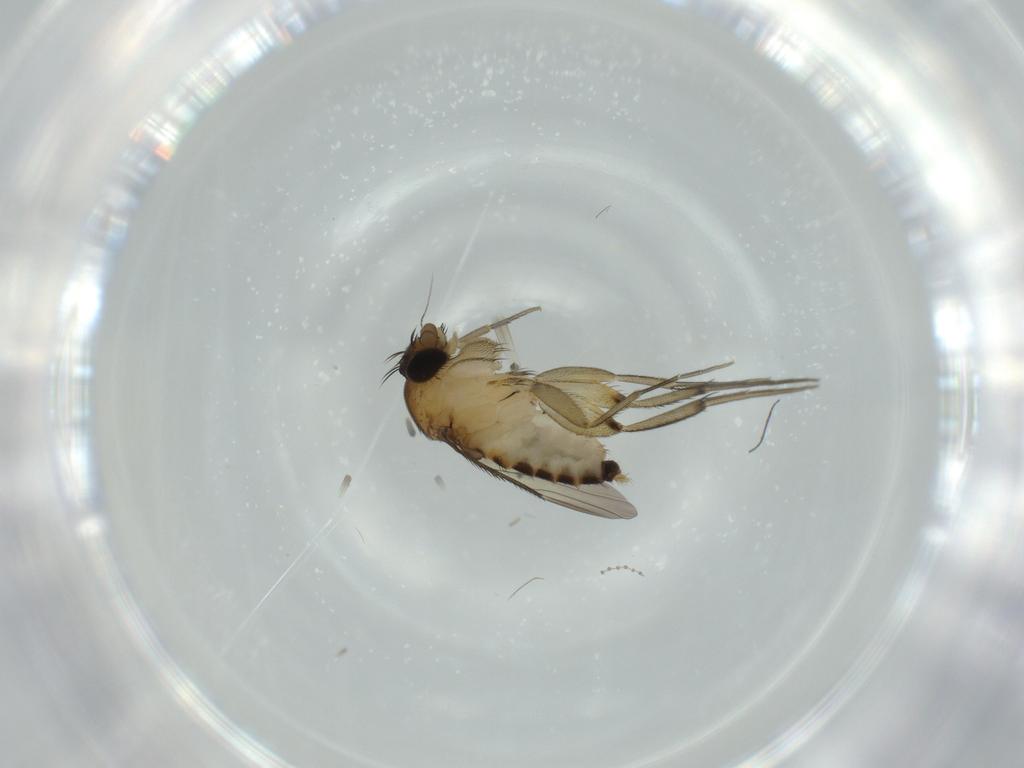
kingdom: Animalia
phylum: Arthropoda
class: Insecta
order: Diptera
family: Phoridae
